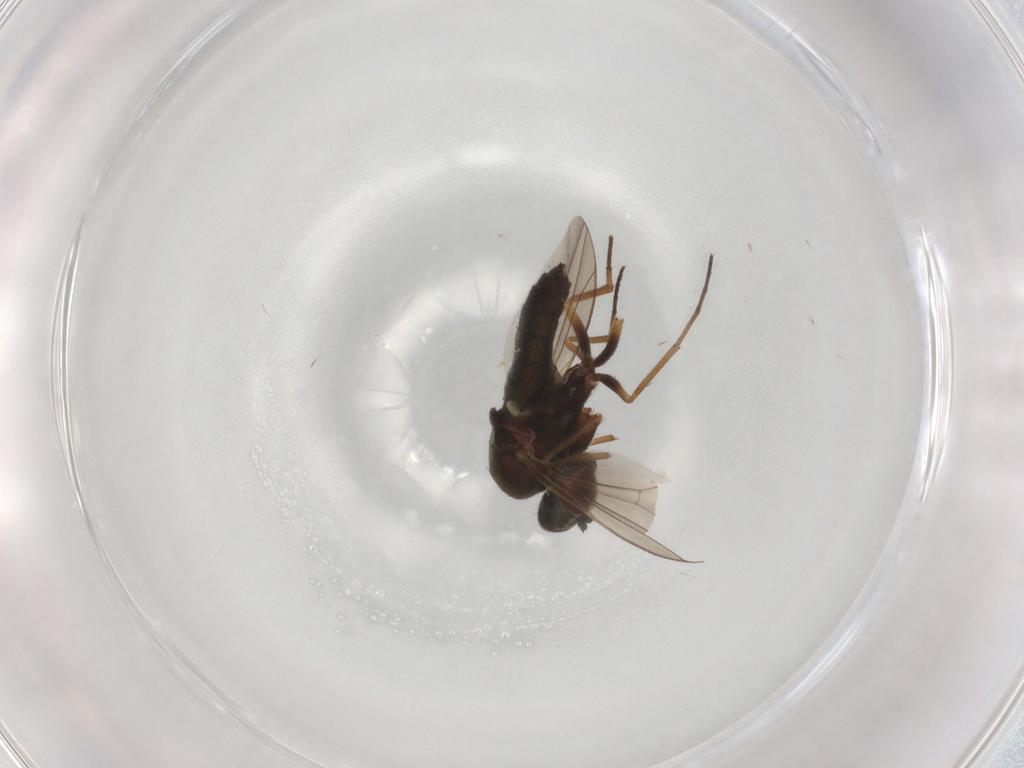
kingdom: Animalia
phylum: Arthropoda
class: Insecta
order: Diptera
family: Dolichopodidae
